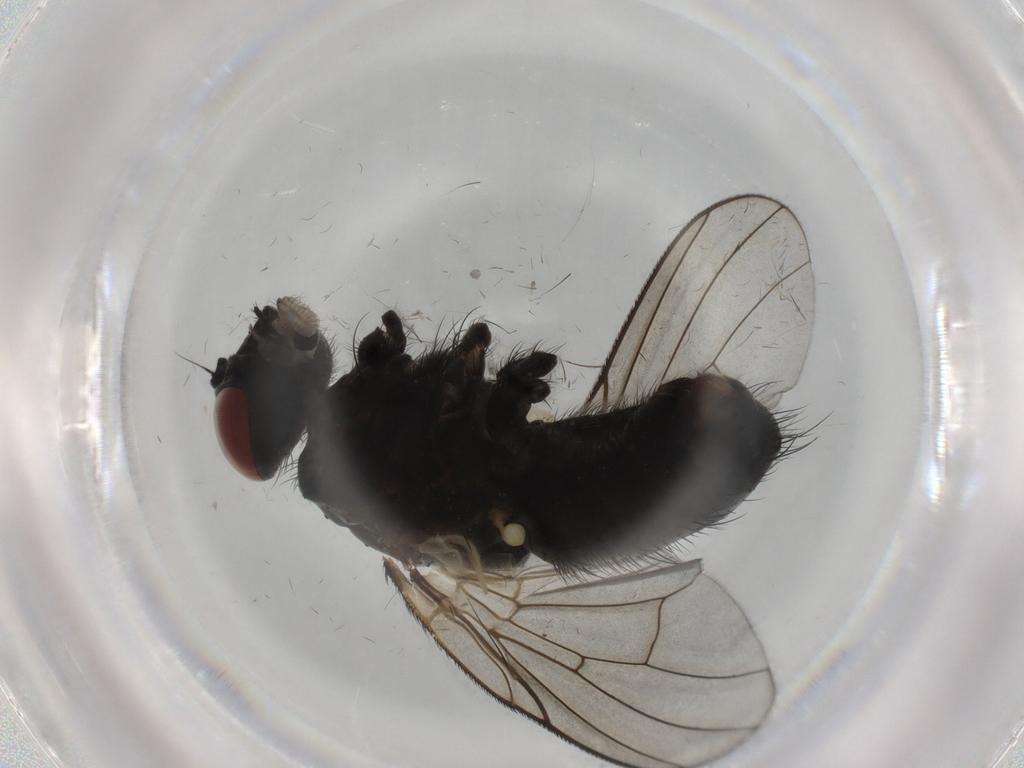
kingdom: Animalia
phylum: Arthropoda
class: Insecta
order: Diptera
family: Muscidae
